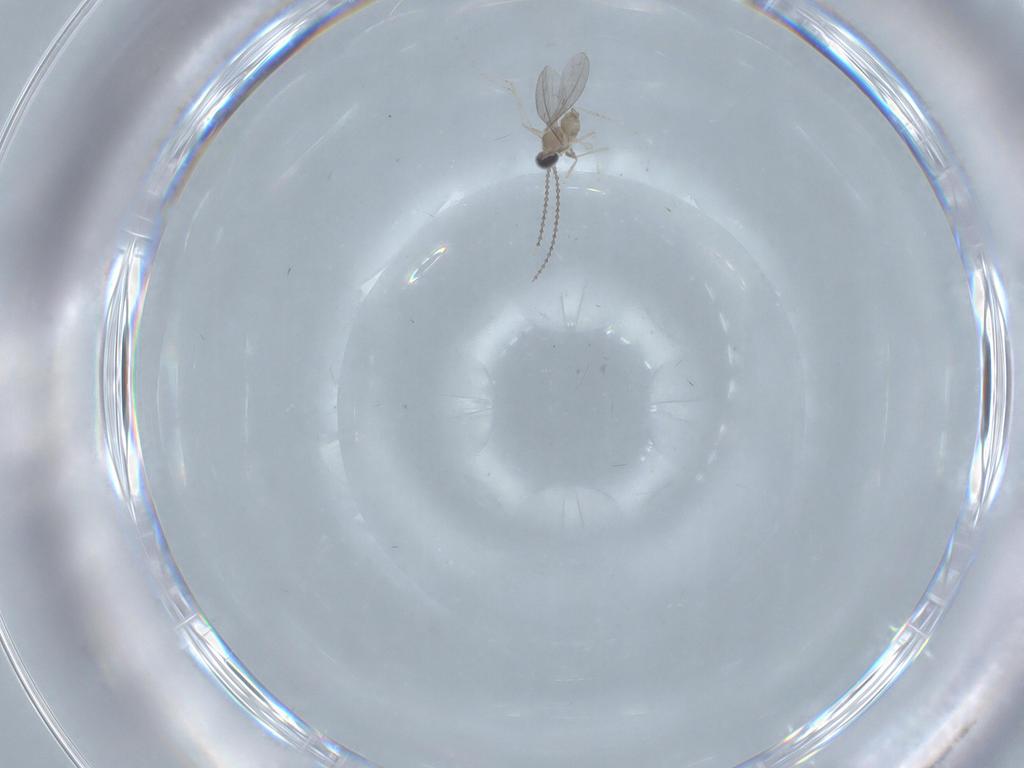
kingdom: Animalia
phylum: Arthropoda
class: Insecta
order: Diptera
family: Cecidomyiidae
